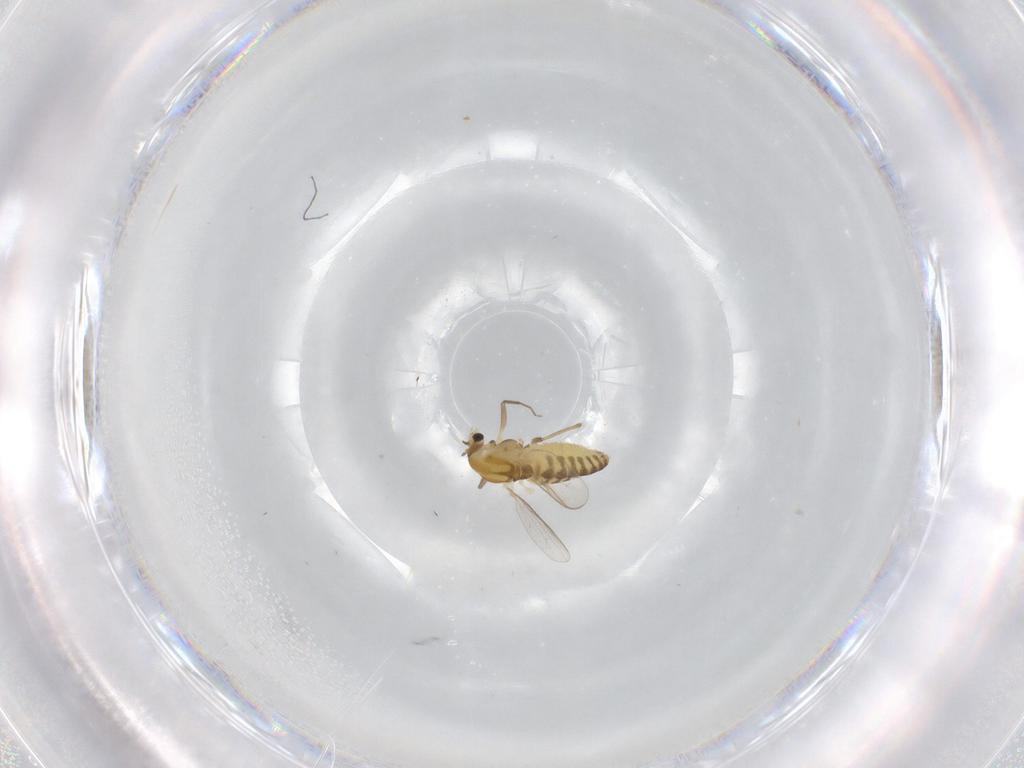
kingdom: Animalia
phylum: Arthropoda
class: Insecta
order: Diptera
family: Chironomidae
